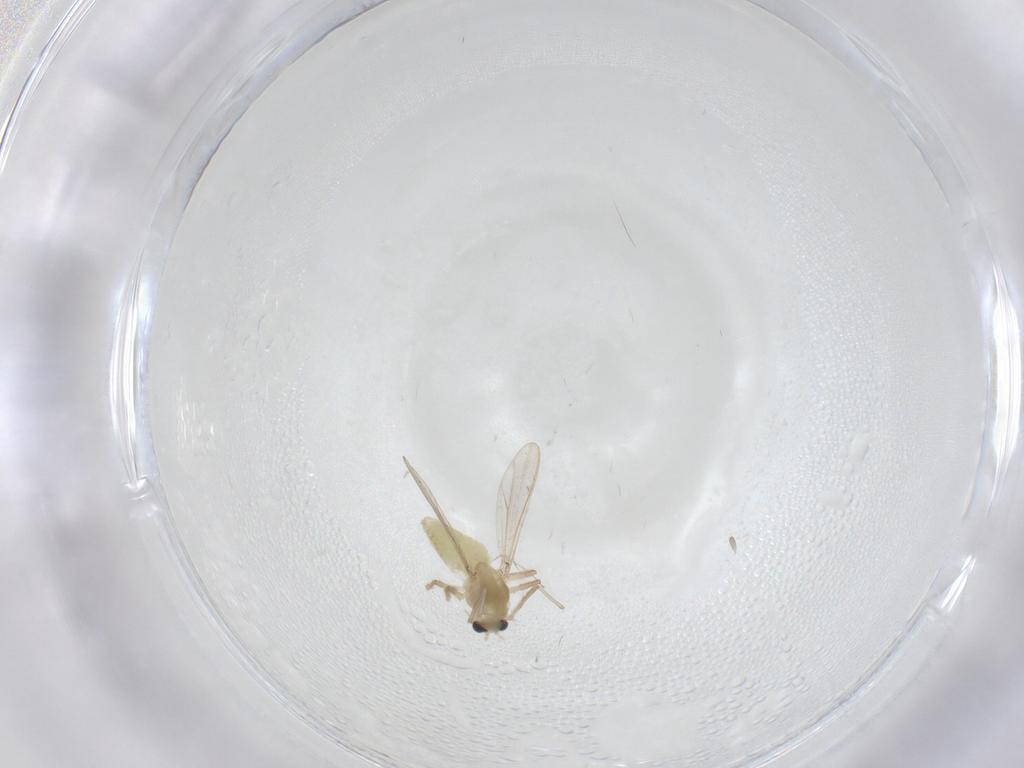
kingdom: Animalia
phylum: Arthropoda
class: Insecta
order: Diptera
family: Cecidomyiidae
